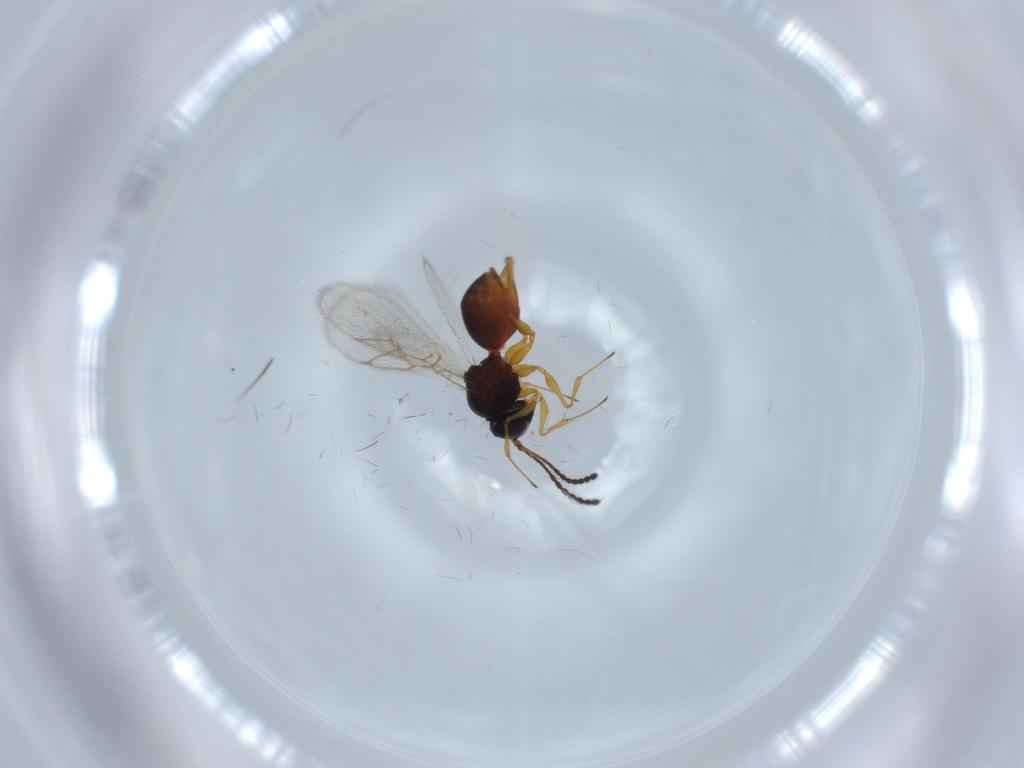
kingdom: Animalia
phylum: Arthropoda
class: Insecta
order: Hymenoptera
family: Figitidae
